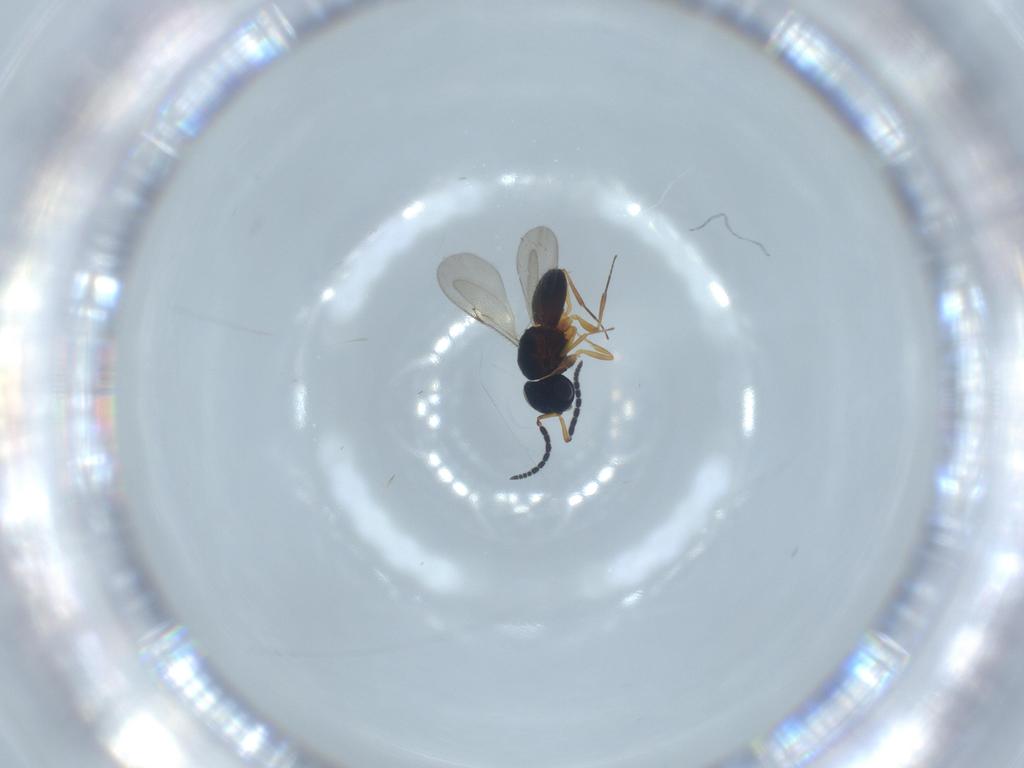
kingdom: Animalia
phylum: Arthropoda
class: Insecta
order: Hymenoptera
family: Scelionidae
